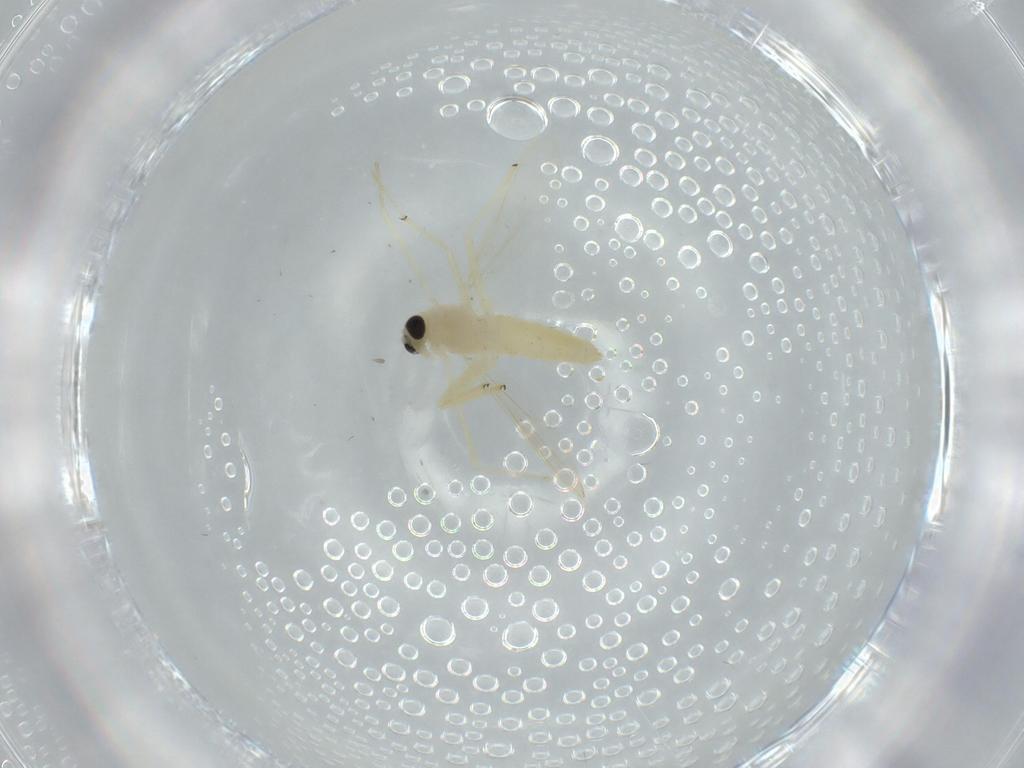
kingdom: Animalia
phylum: Arthropoda
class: Insecta
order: Diptera
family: Chironomidae
